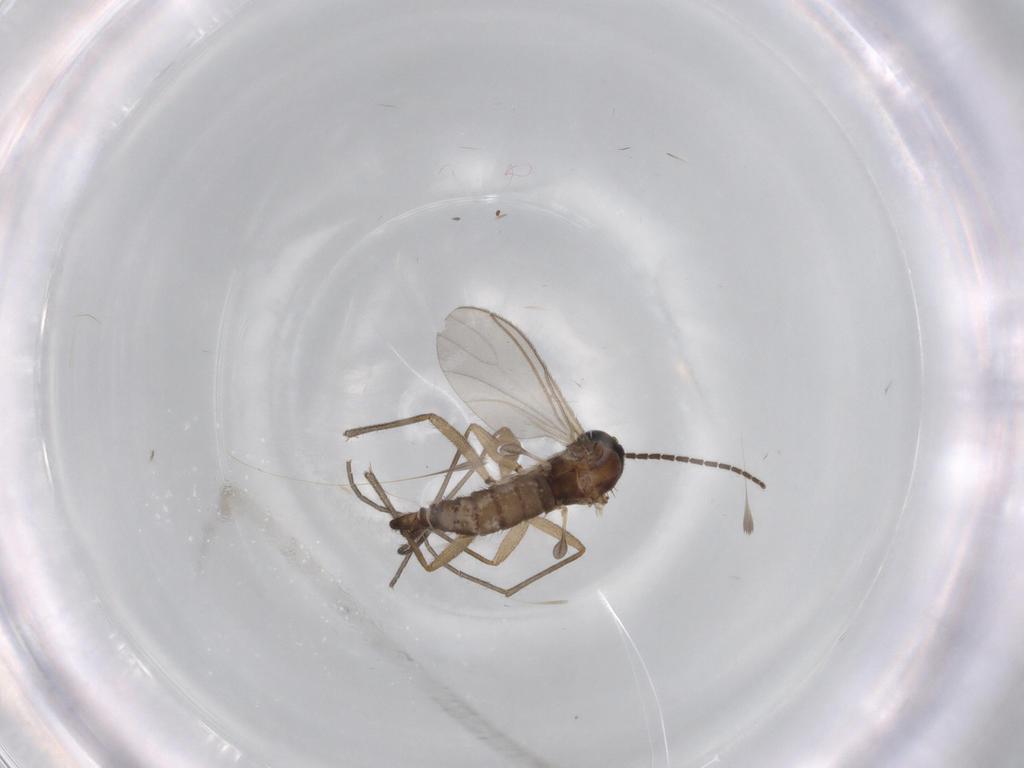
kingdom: Animalia
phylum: Arthropoda
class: Insecta
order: Diptera
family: Sciaridae
